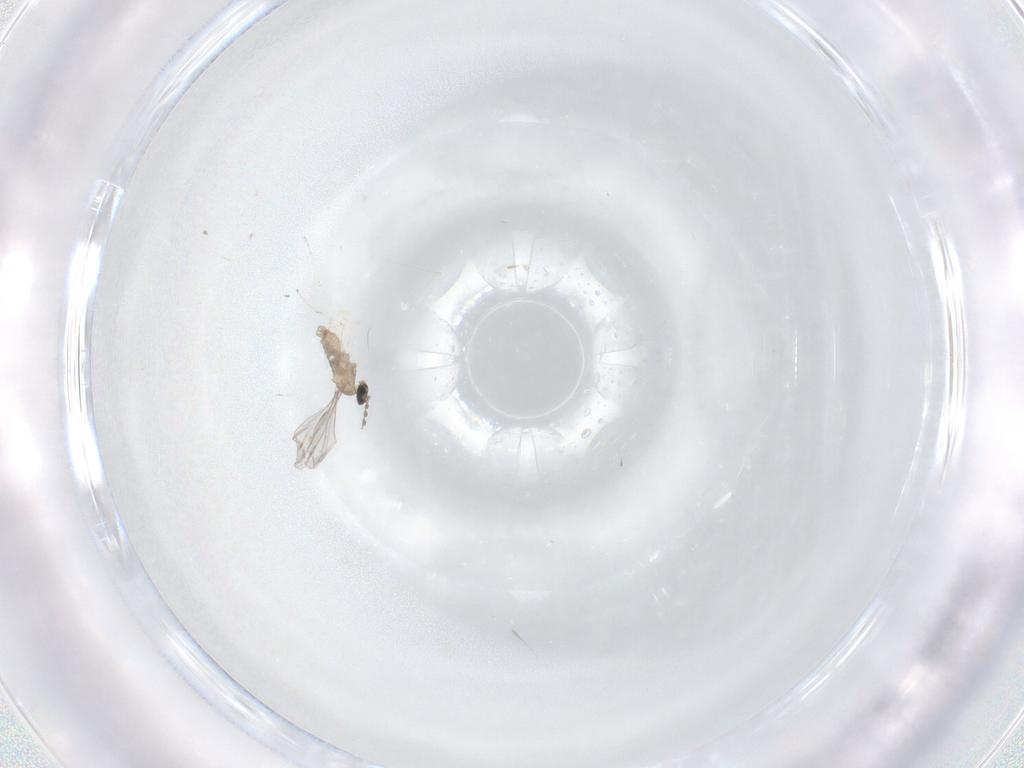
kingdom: Animalia
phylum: Arthropoda
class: Insecta
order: Diptera
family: Cecidomyiidae
